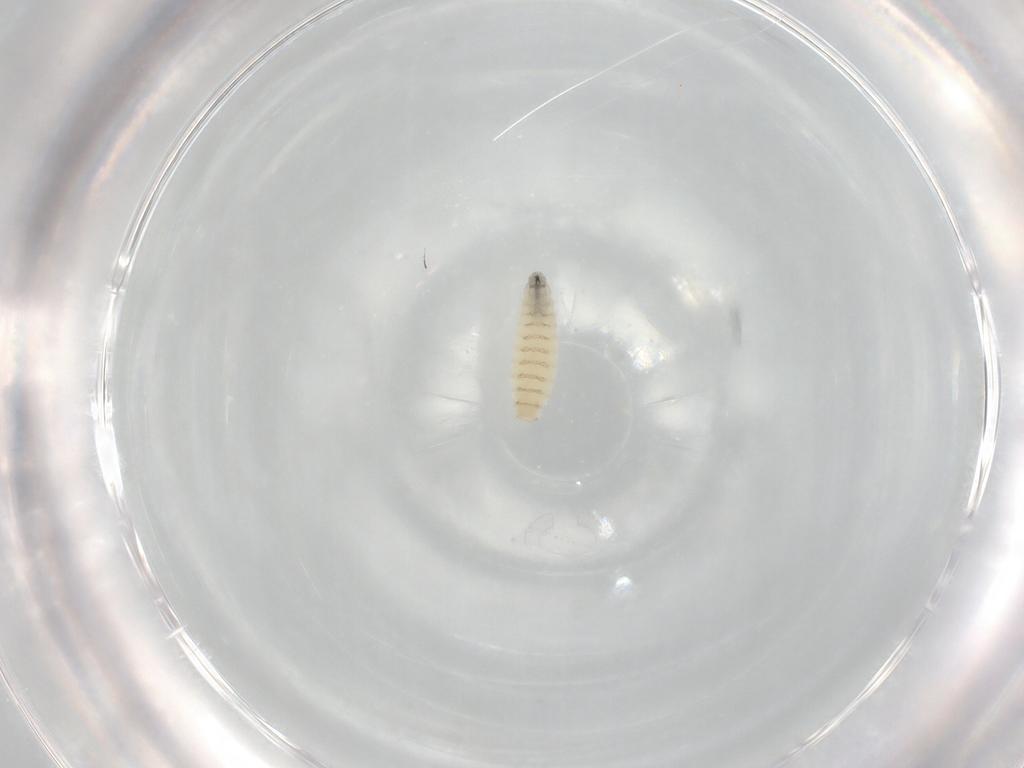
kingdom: Animalia
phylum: Arthropoda
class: Insecta
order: Diptera
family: Sarcophagidae
